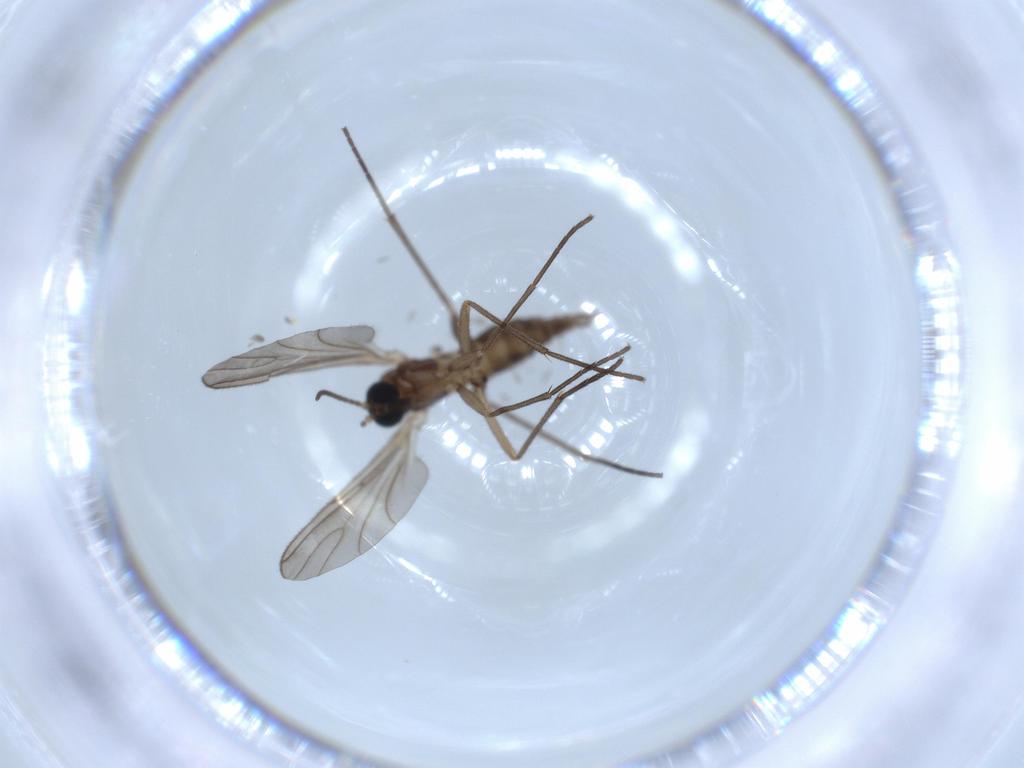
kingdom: Animalia
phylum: Arthropoda
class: Insecta
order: Diptera
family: Sciaridae
